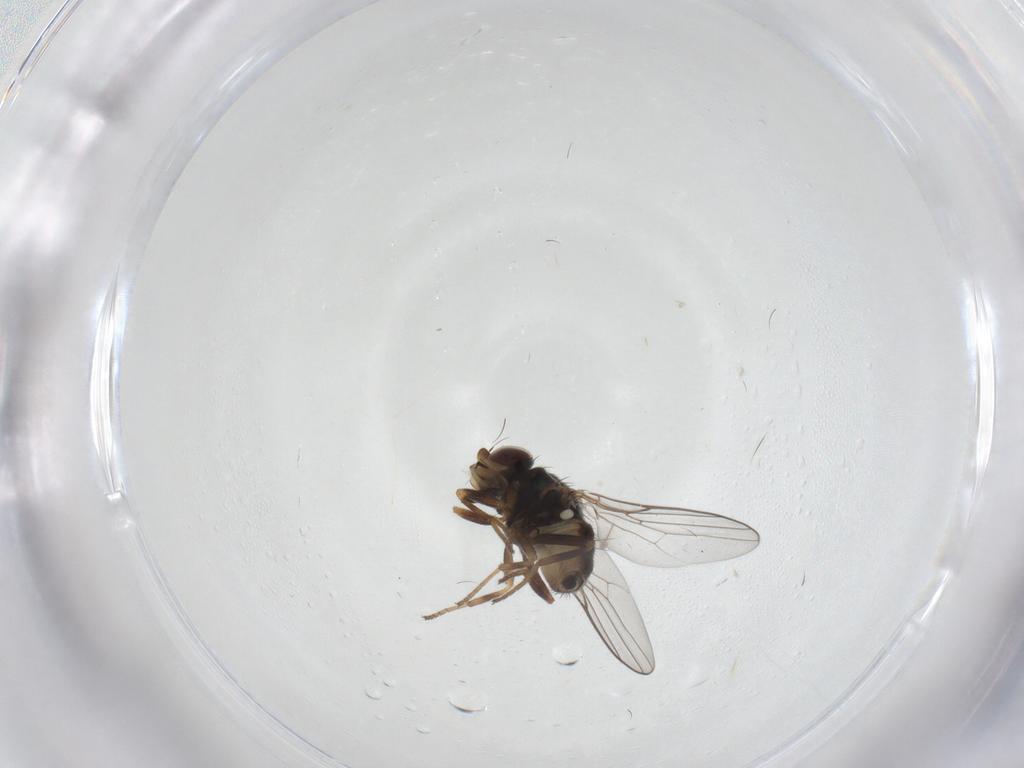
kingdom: Animalia
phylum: Arthropoda
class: Insecta
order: Diptera
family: Chloropidae
